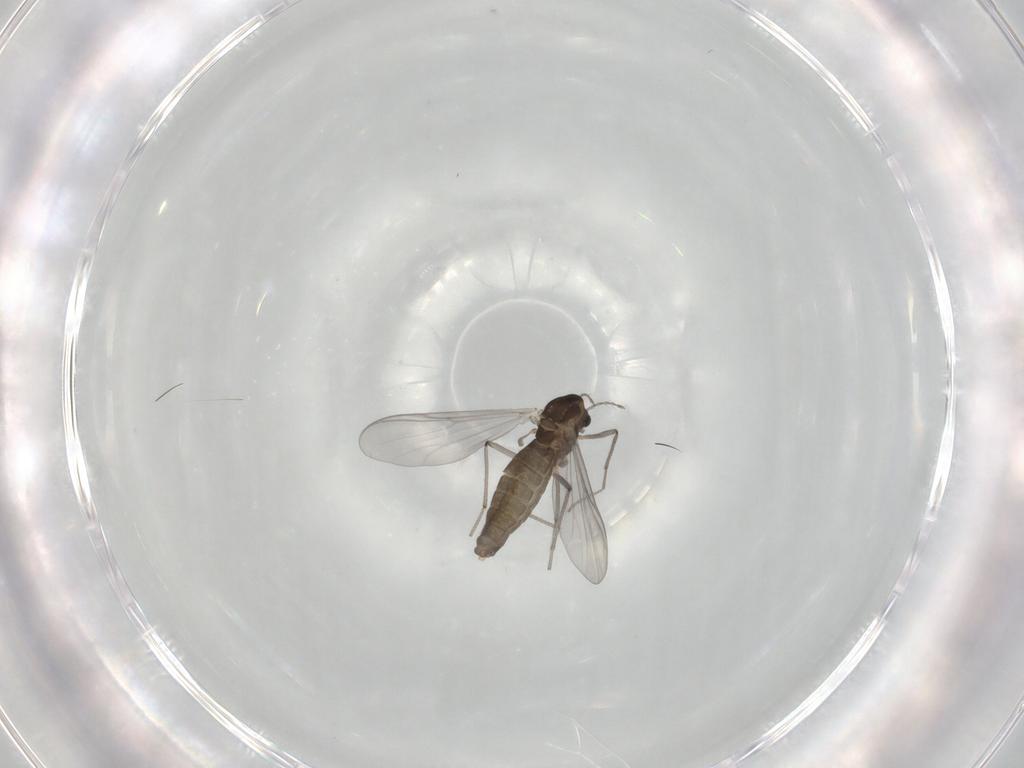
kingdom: Animalia
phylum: Arthropoda
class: Insecta
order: Diptera
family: Chironomidae
